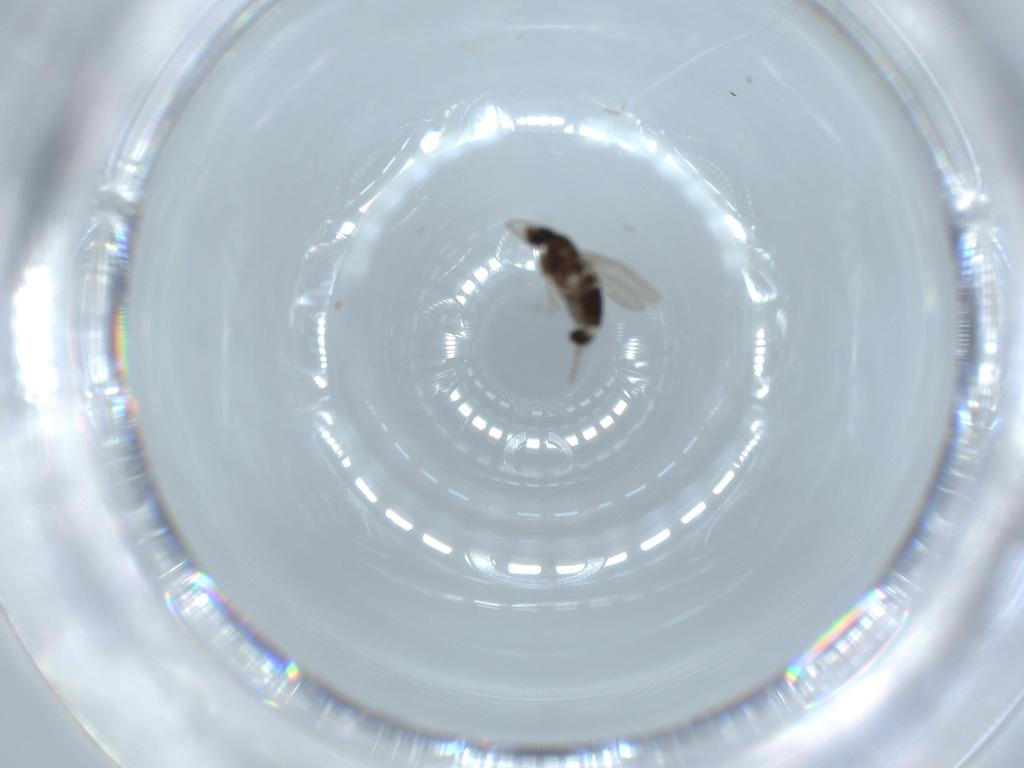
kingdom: Animalia
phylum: Arthropoda
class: Insecta
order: Diptera
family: Phoridae
